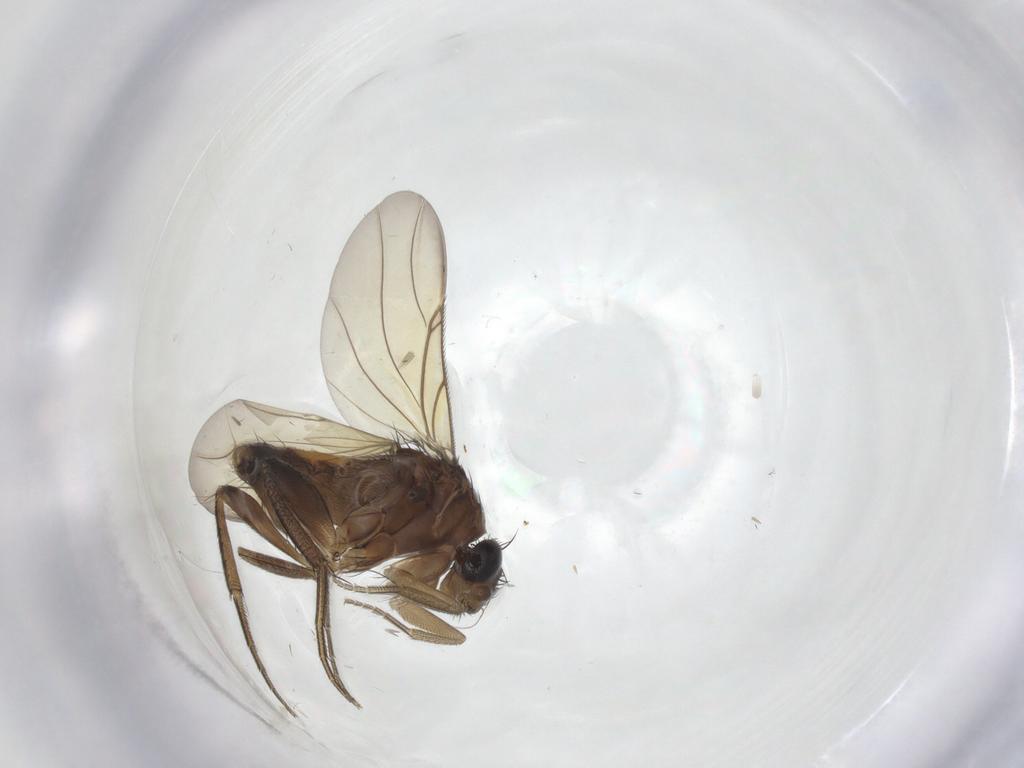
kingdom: Animalia
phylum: Arthropoda
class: Insecta
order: Diptera
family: Phoridae
